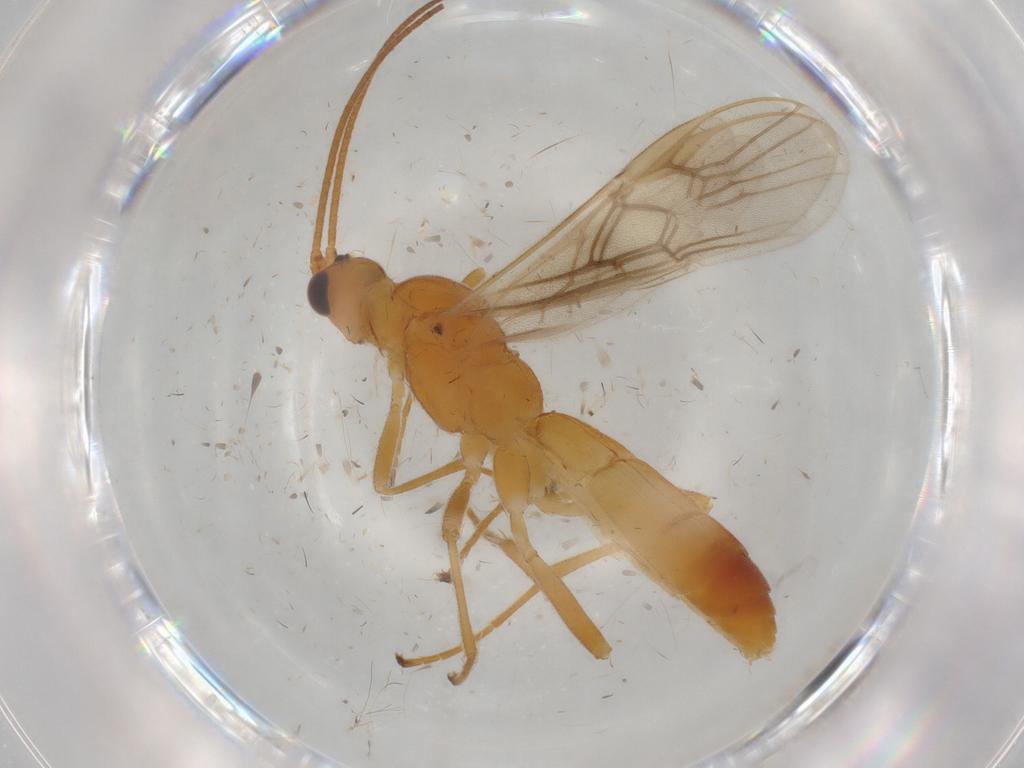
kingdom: Animalia
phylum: Arthropoda
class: Insecta
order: Hymenoptera
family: Braconidae
